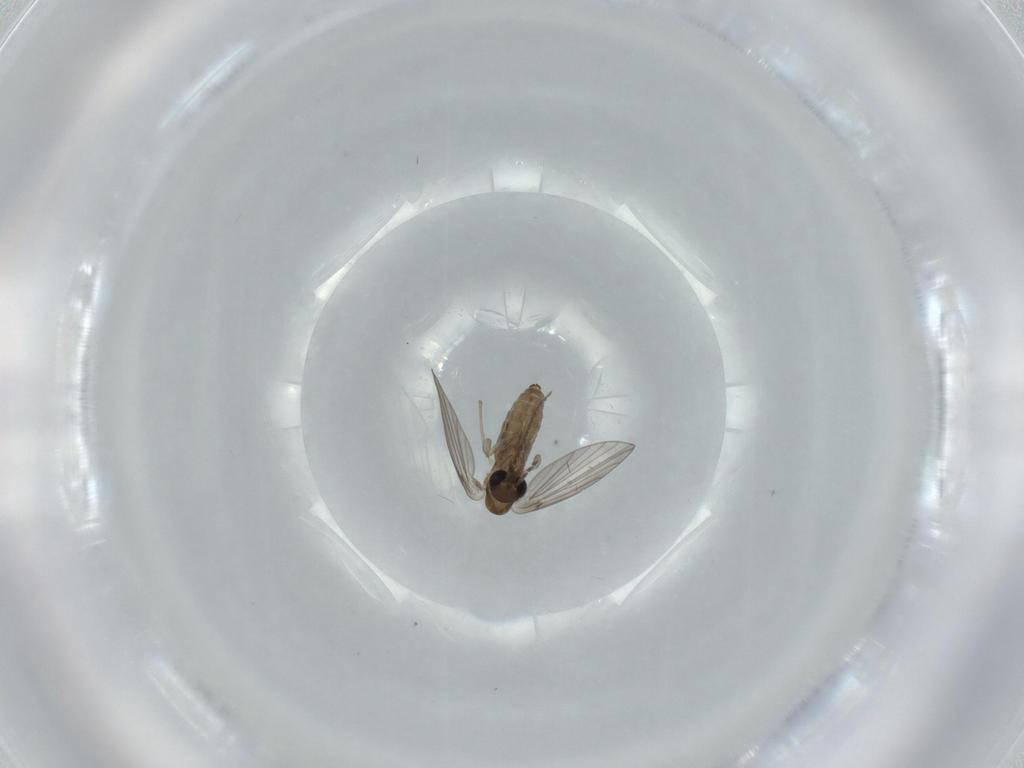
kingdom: Animalia
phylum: Arthropoda
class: Insecta
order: Diptera
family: Psychodidae
